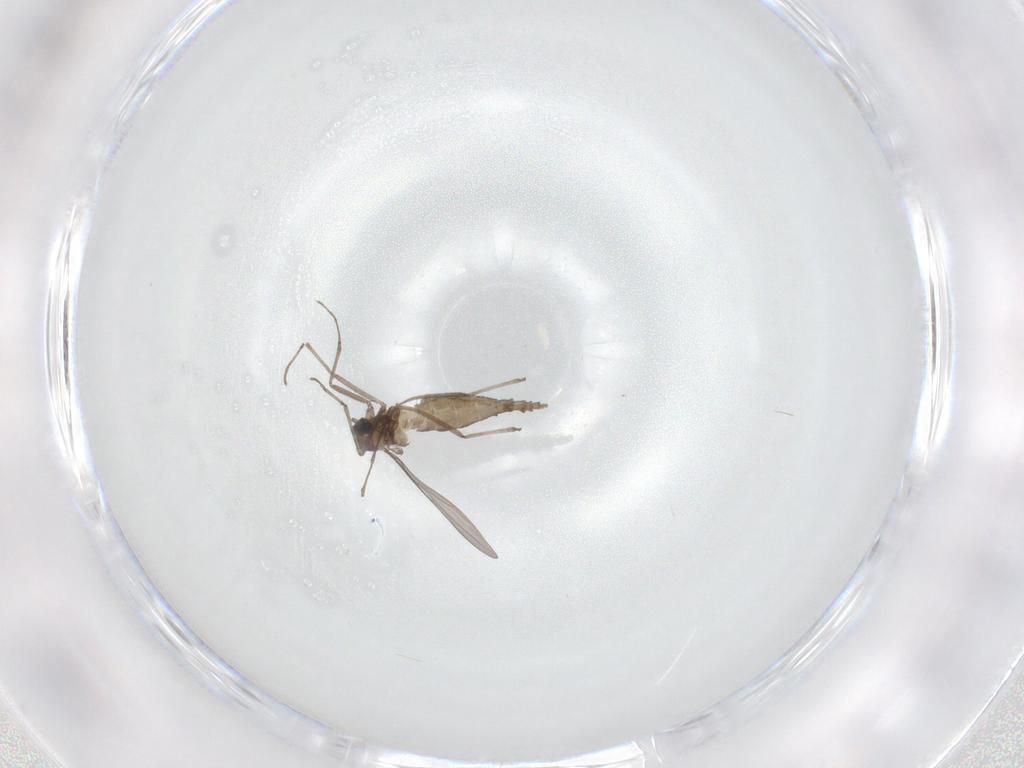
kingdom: Animalia
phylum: Arthropoda
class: Insecta
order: Diptera
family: Cecidomyiidae
